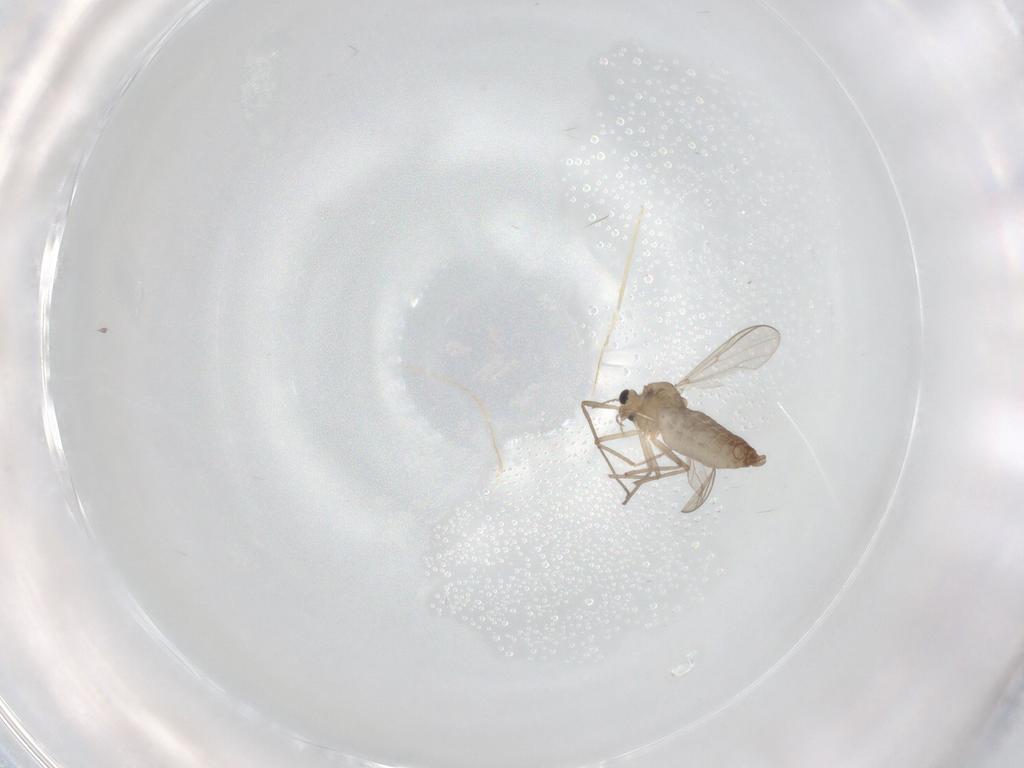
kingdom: Animalia
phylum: Arthropoda
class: Insecta
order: Diptera
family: Chironomidae
